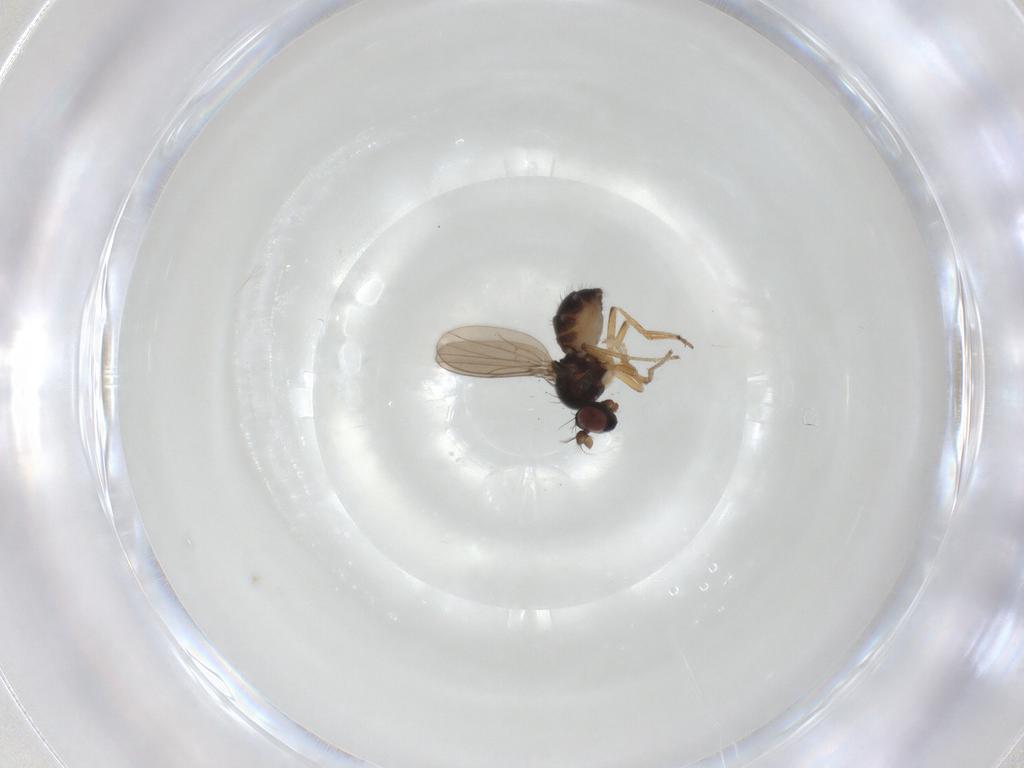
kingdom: Animalia
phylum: Arthropoda
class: Insecta
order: Diptera
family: Ephydridae
